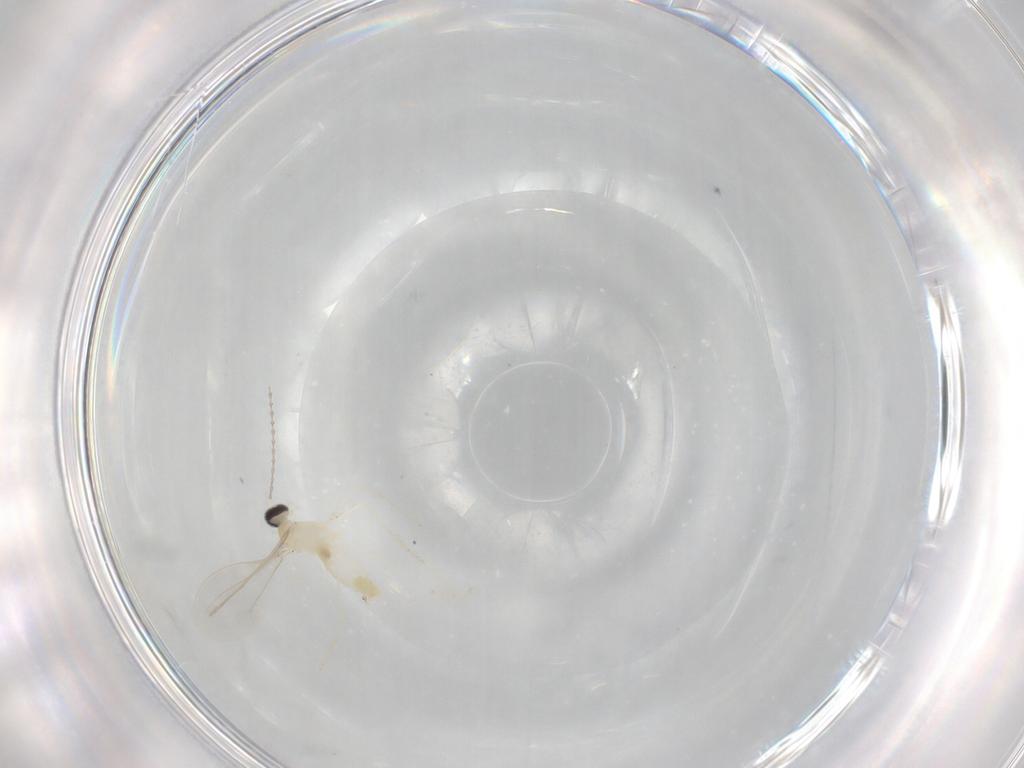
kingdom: Animalia
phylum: Arthropoda
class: Insecta
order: Diptera
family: Cecidomyiidae
